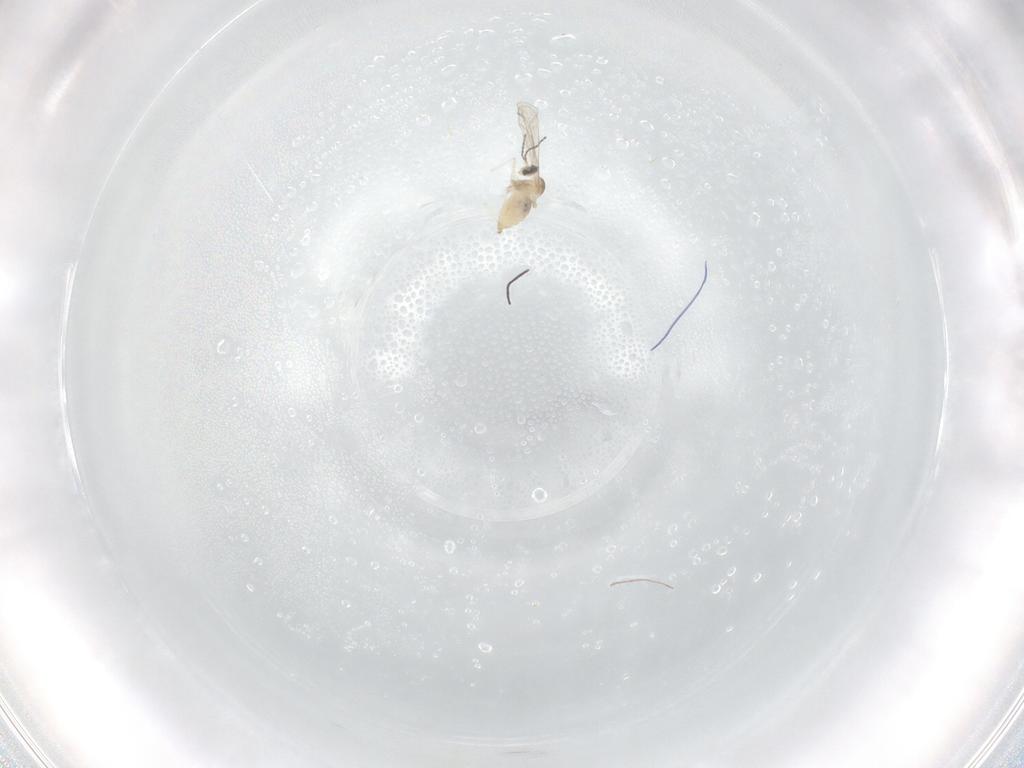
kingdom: Animalia
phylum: Arthropoda
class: Insecta
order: Diptera
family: Cecidomyiidae
